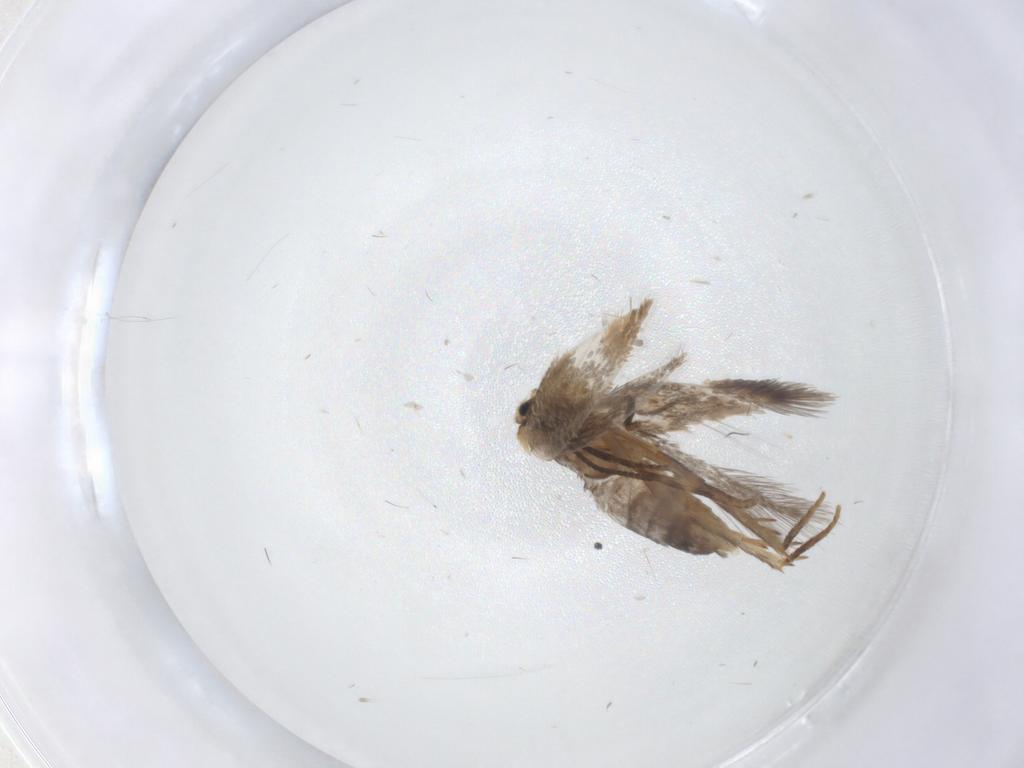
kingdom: Animalia
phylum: Arthropoda
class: Insecta
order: Lepidoptera
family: Nepticulidae
